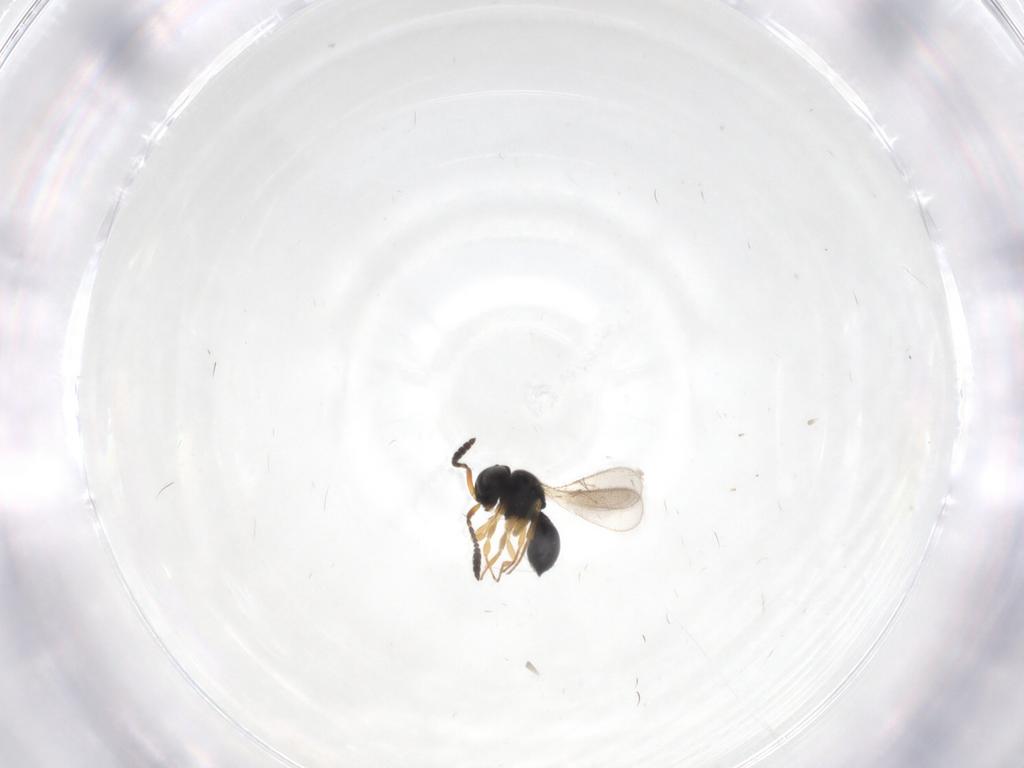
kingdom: Animalia
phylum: Arthropoda
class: Insecta
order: Hymenoptera
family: Scelionidae
